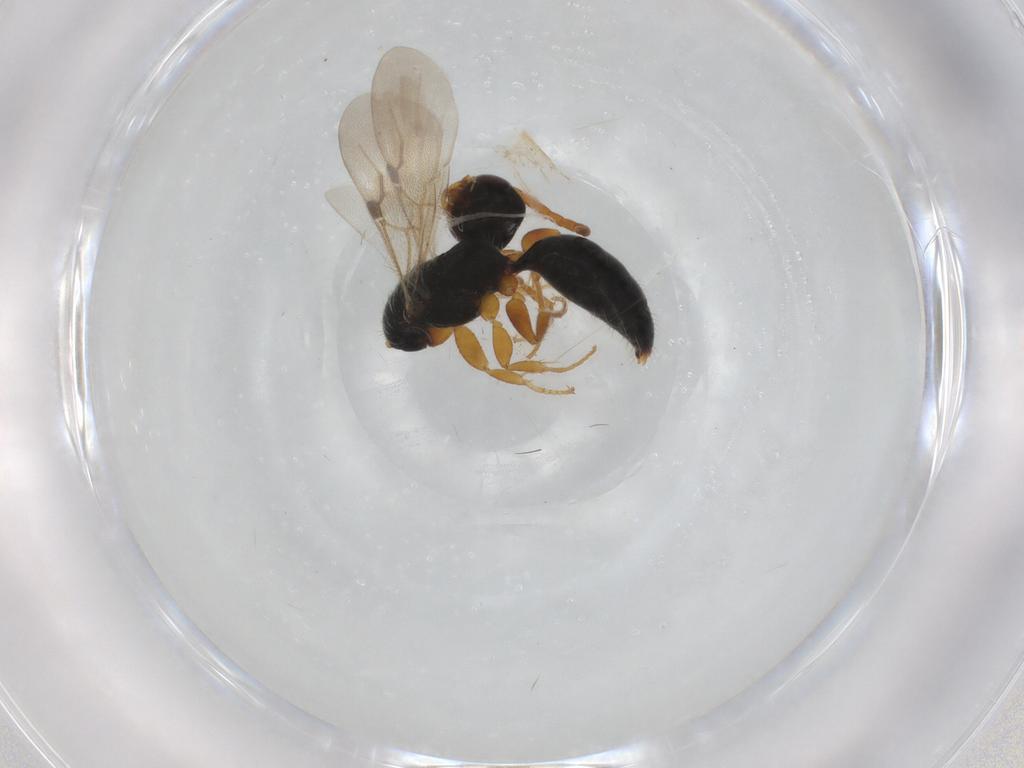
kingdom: Animalia
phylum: Arthropoda
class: Insecta
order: Hymenoptera
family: Bethylidae
